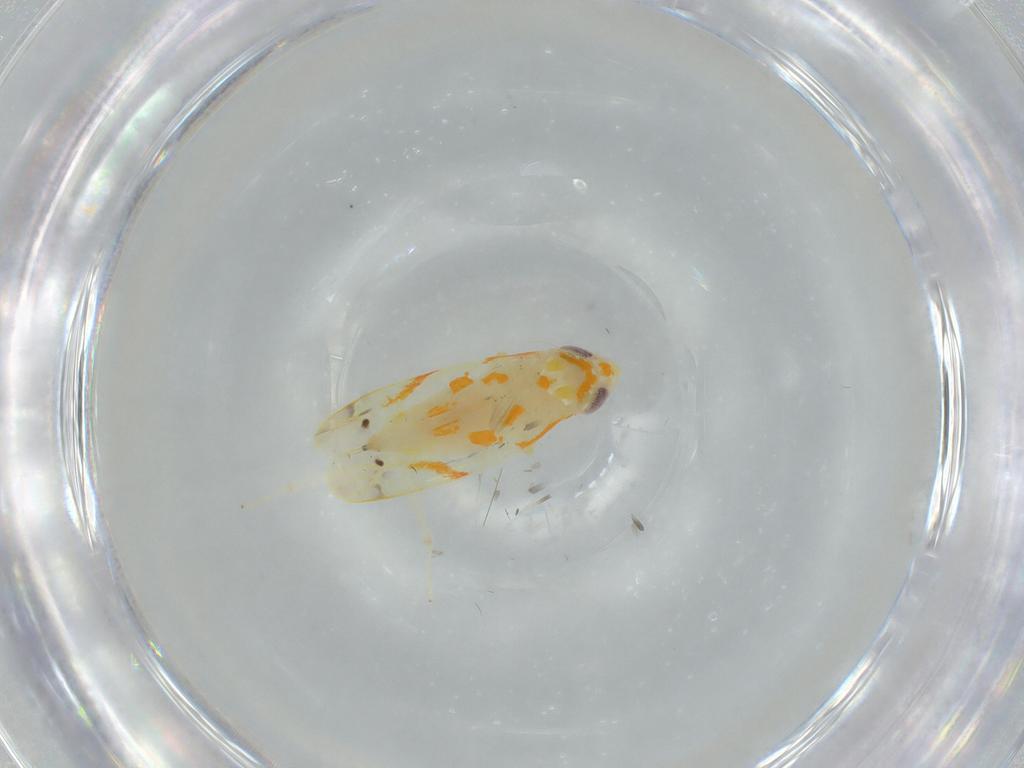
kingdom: Animalia
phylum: Arthropoda
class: Insecta
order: Hemiptera
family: Cicadellidae
